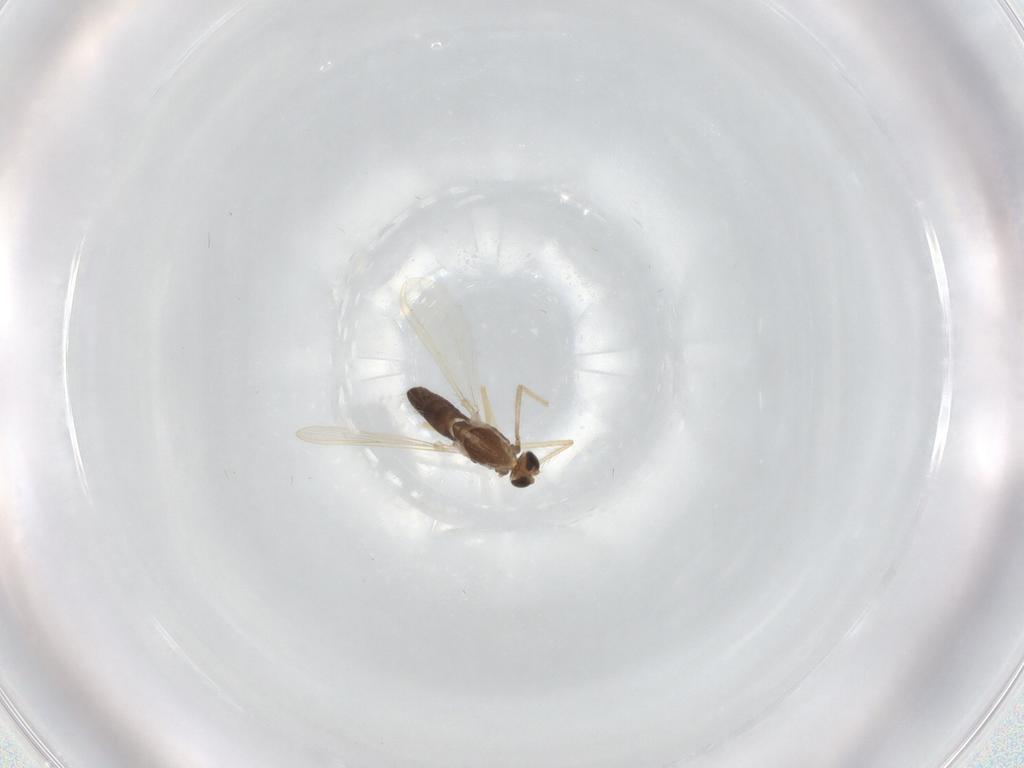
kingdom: Animalia
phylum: Arthropoda
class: Insecta
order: Diptera
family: Chironomidae
